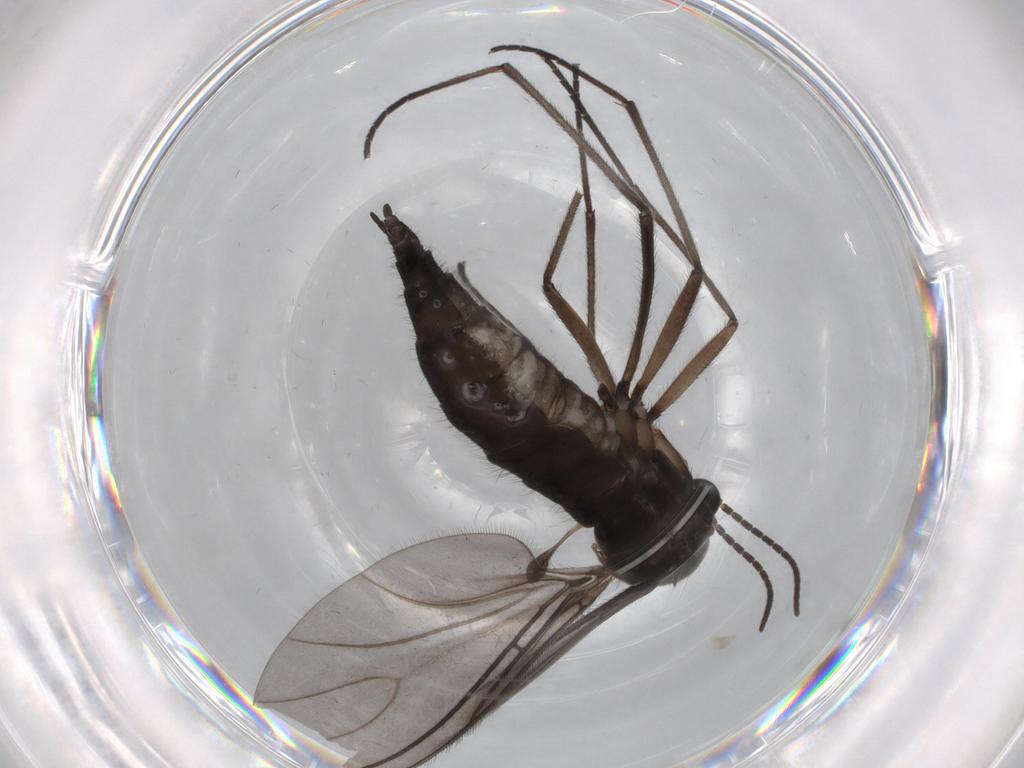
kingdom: Animalia
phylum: Arthropoda
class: Insecta
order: Diptera
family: Sciaridae
